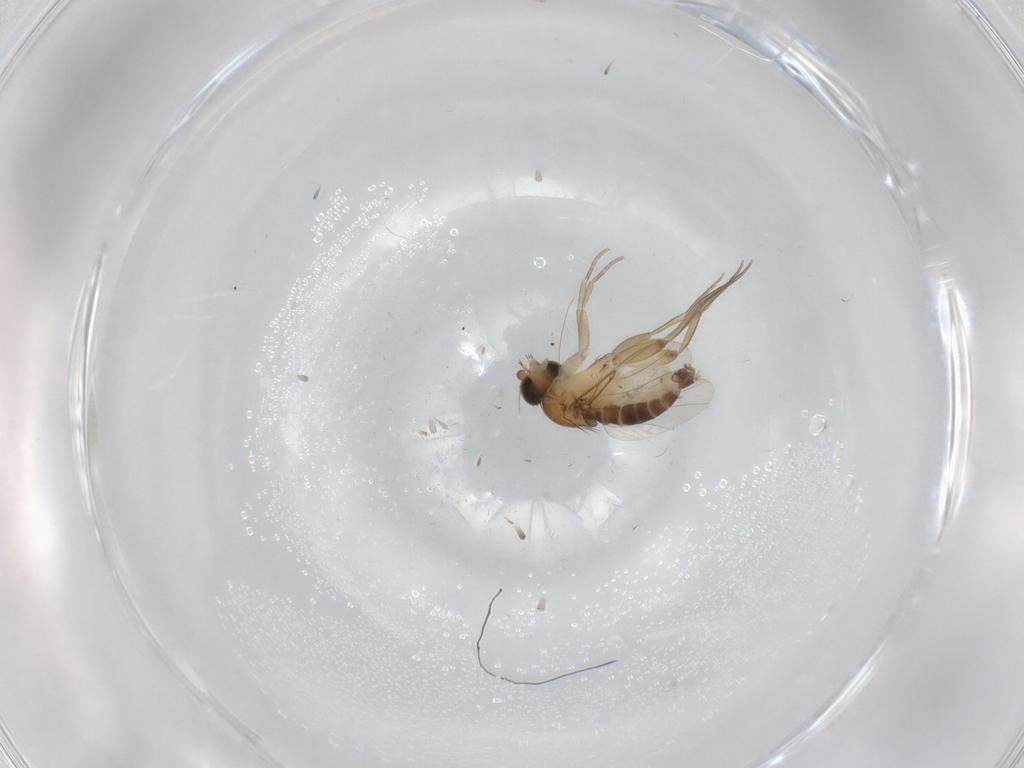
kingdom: Animalia
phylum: Arthropoda
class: Insecta
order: Diptera
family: Phoridae
